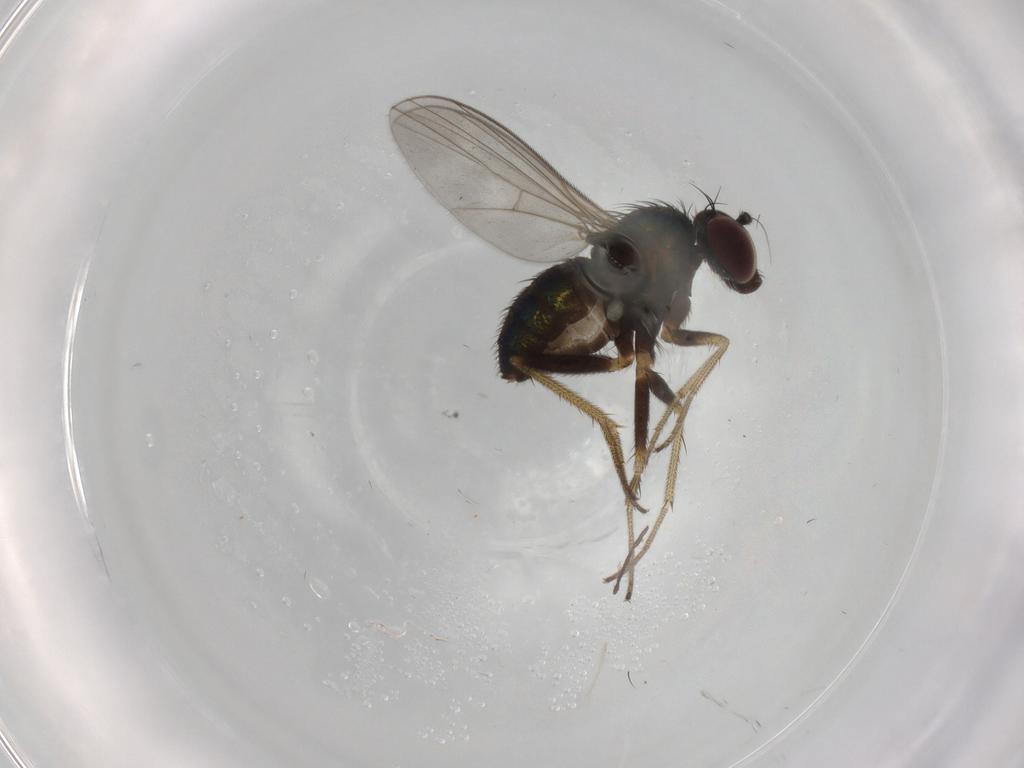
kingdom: Animalia
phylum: Arthropoda
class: Insecta
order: Diptera
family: Limoniidae
